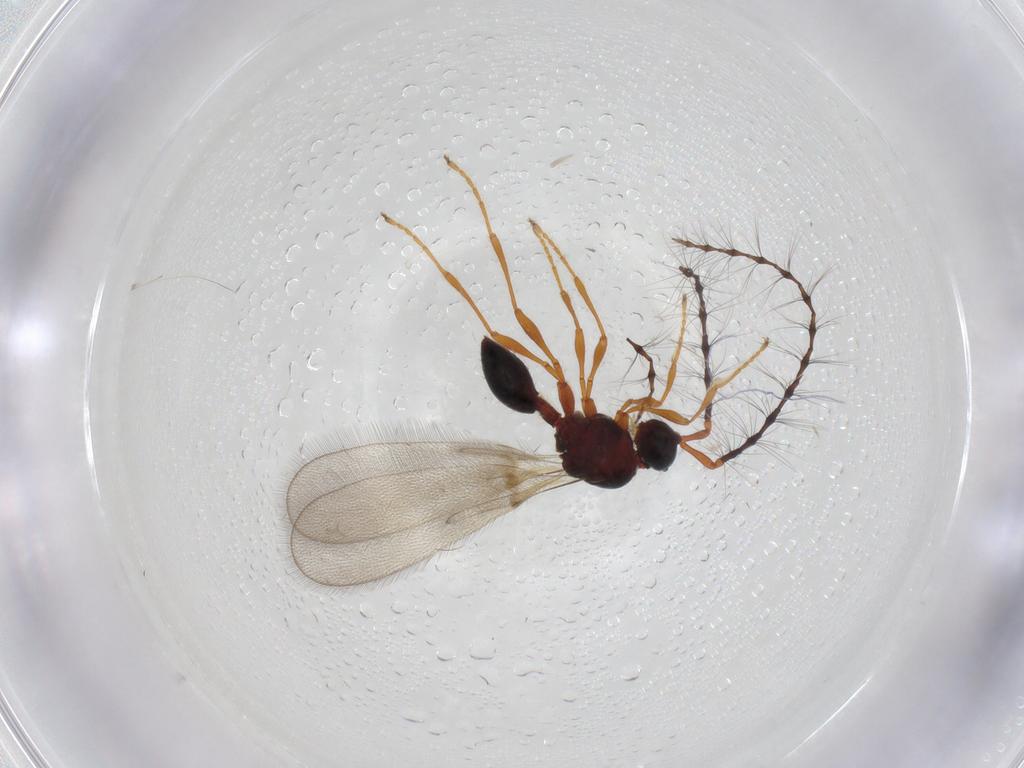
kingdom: Animalia
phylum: Arthropoda
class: Insecta
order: Hymenoptera
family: Diapriidae
